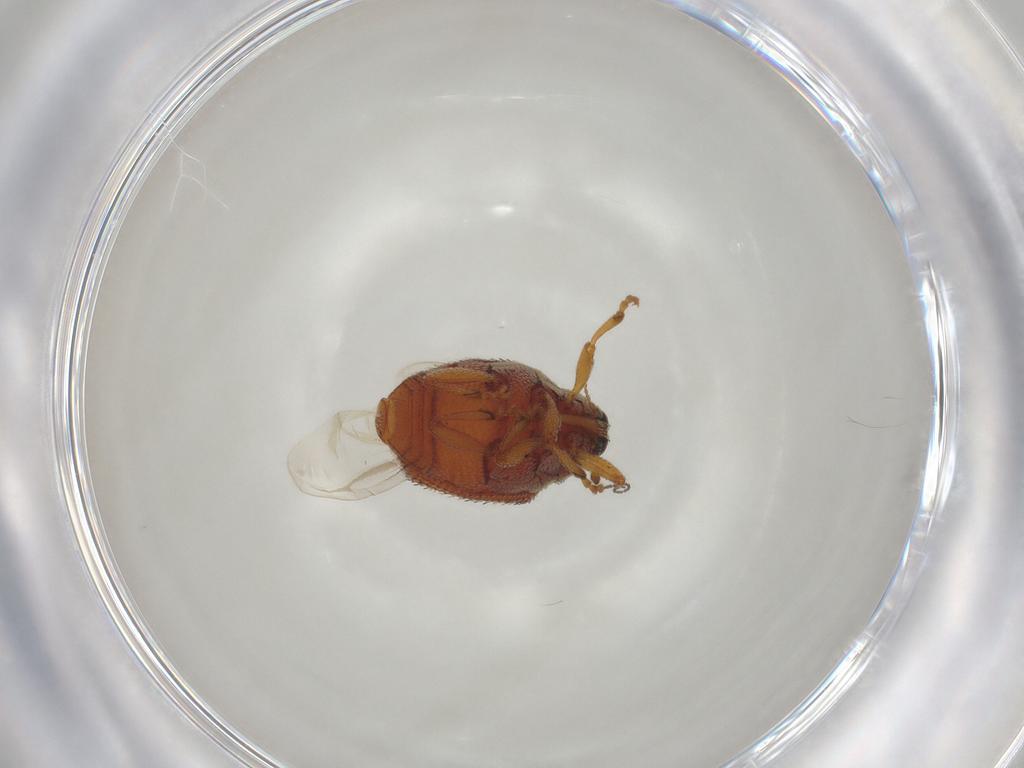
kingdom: Animalia
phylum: Arthropoda
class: Insecta
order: Coleoptera
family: Curculionidae
